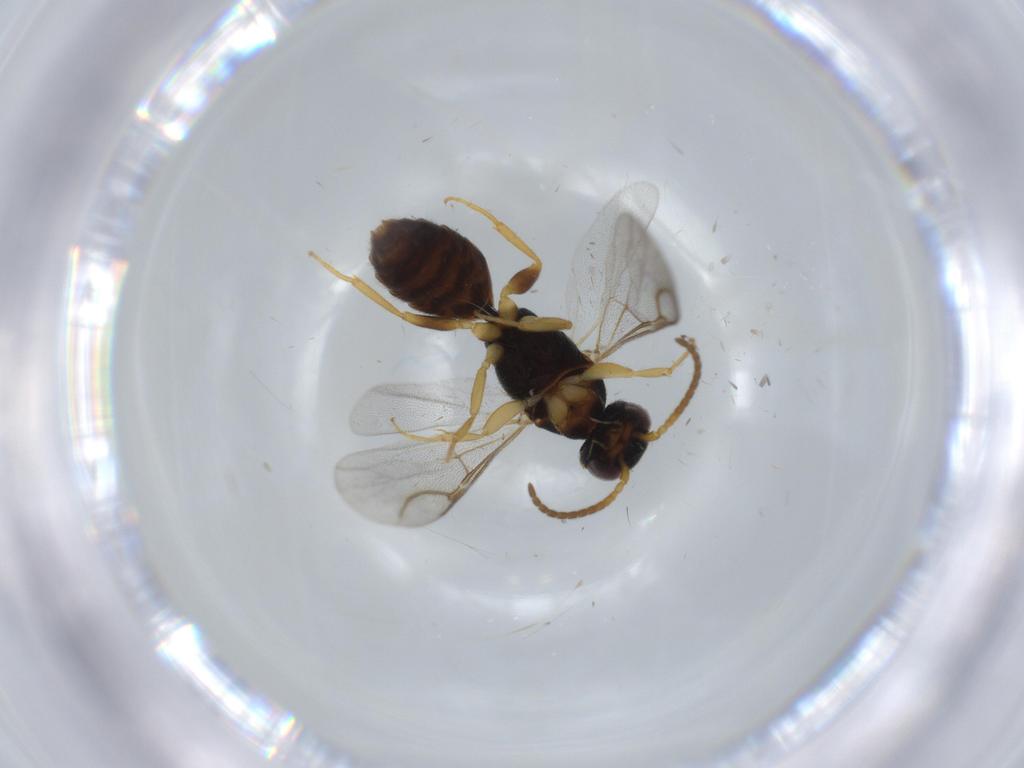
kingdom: Animalia
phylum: Arthropoda
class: Insecta
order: Hymenoptera
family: Bethylidae
